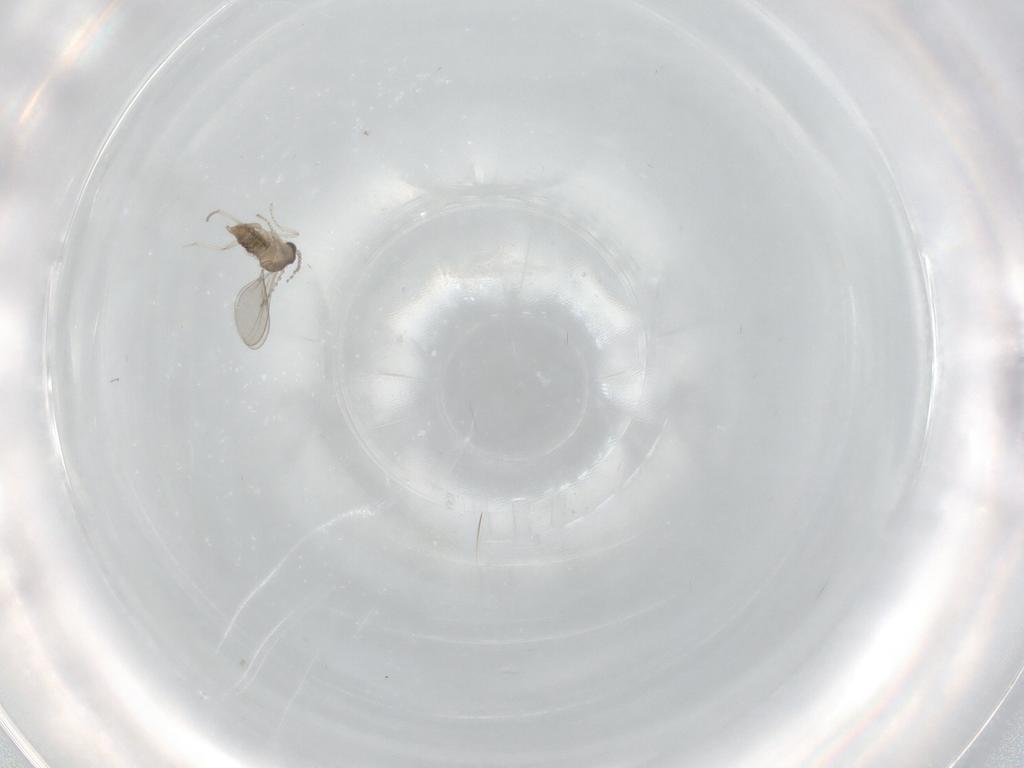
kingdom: Animalia
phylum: Arthropoda
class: Insecta
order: Diptera
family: Cecidomyiidae
